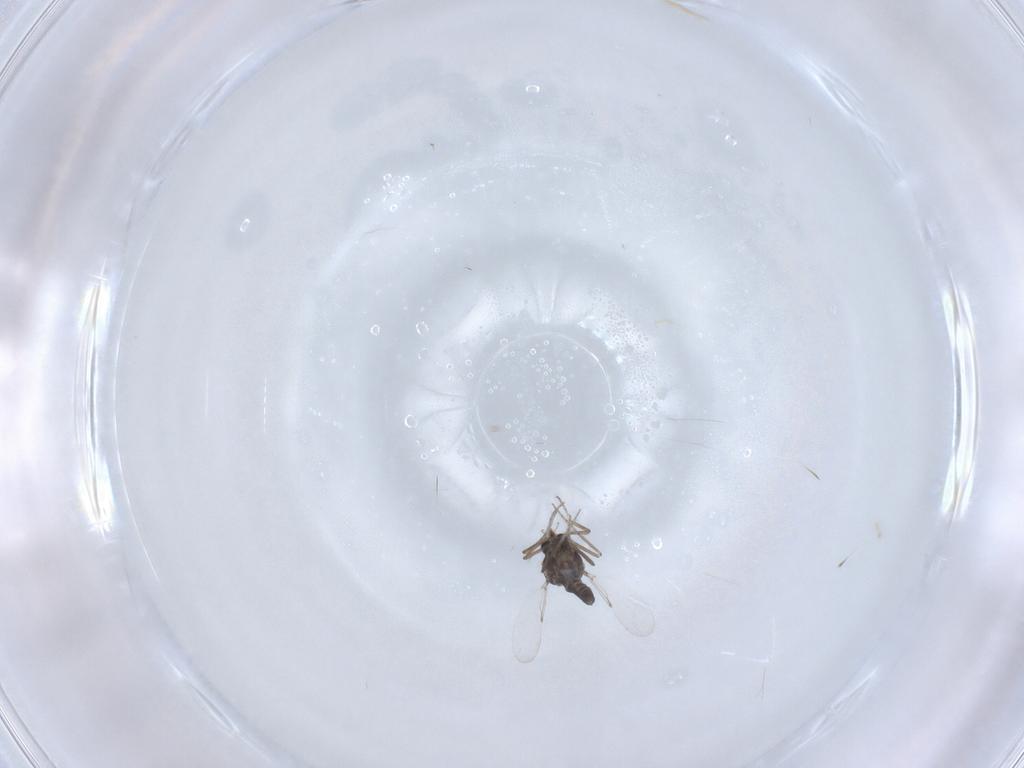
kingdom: Animalia
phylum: Arthropoda
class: Insecta
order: Diptera
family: Ceratopogonidae
